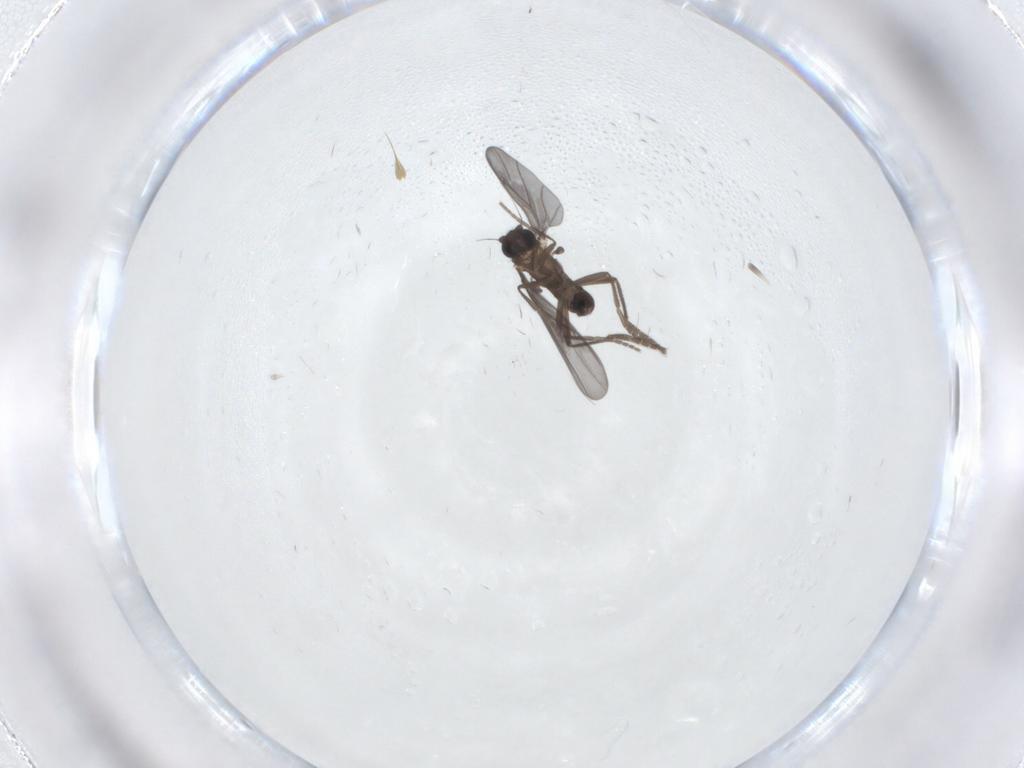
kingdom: Animalia
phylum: Arthropoda
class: Insecta
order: Diptera
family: Phoridae
